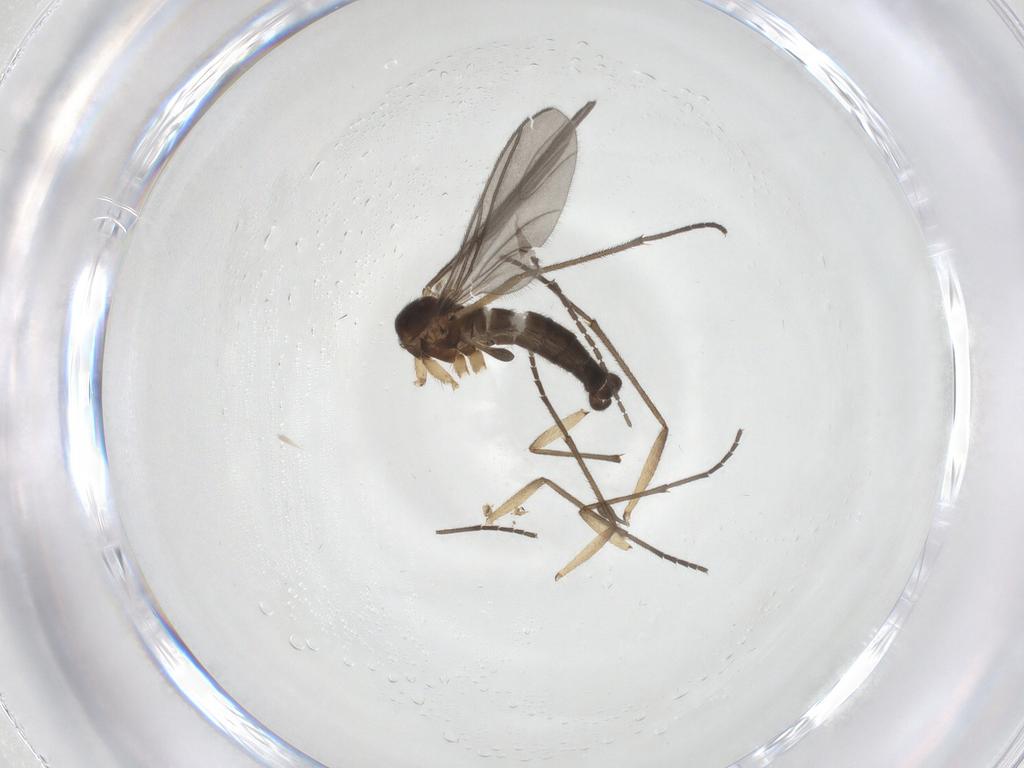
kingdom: Animalia
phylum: Arthropoda
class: Insecta
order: Diptera
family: Sciaridae
